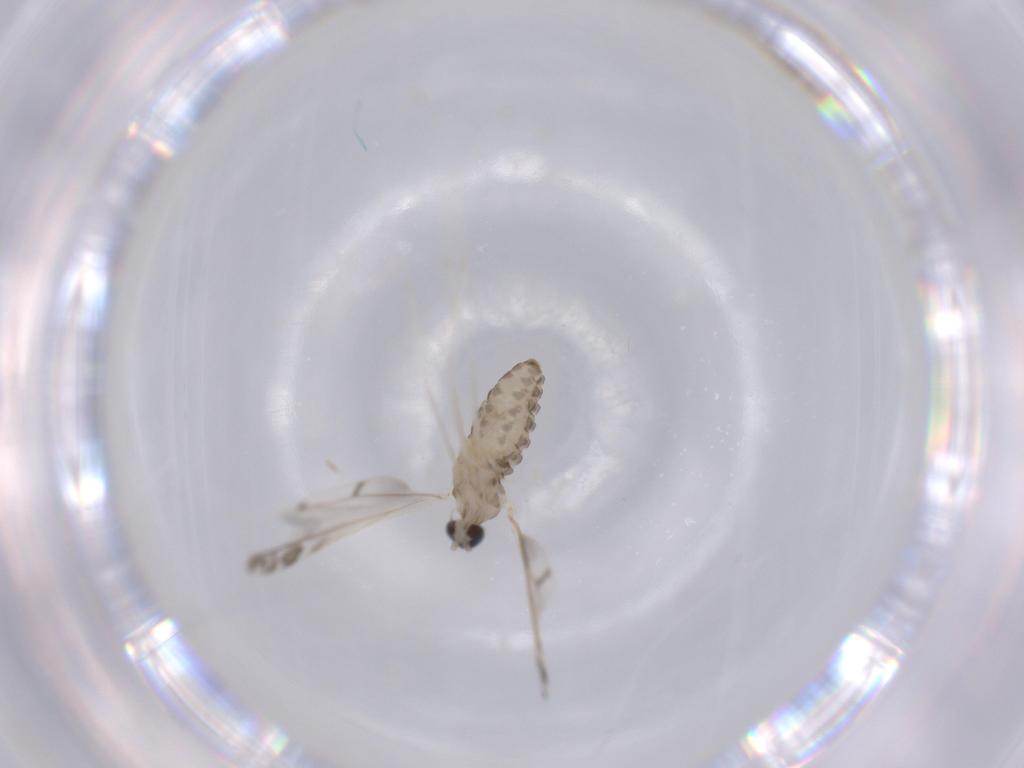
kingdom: Animalia
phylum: Arthropoda
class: Insecta
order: Diptera
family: Cecidomyiidae
